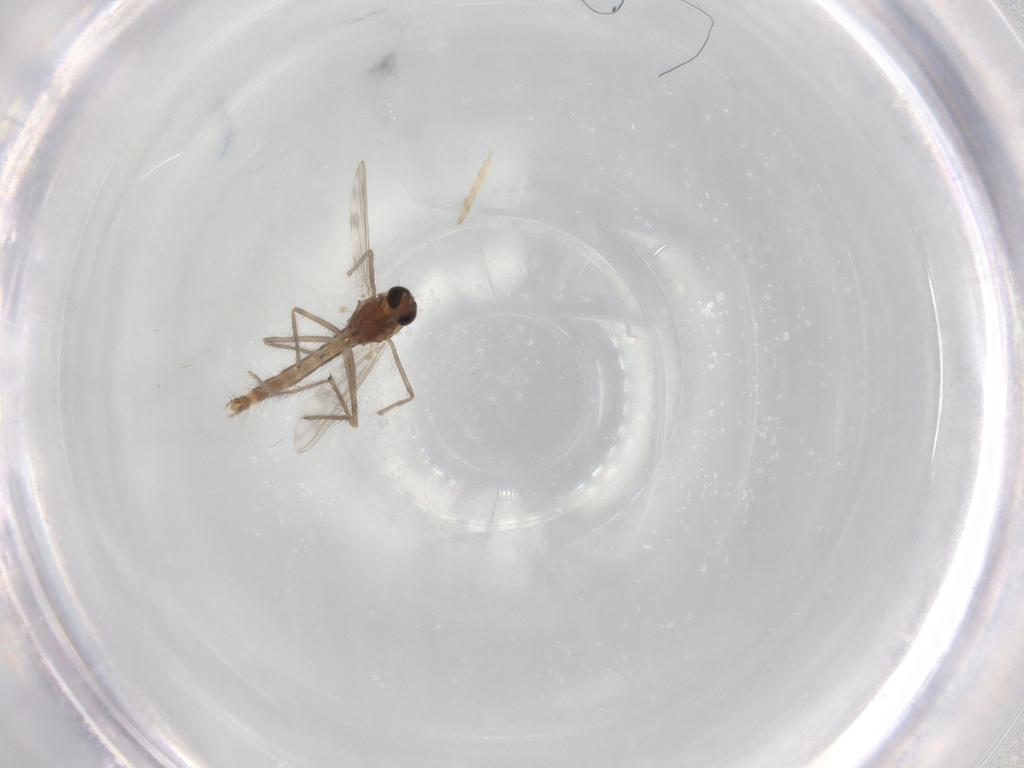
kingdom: Animalia
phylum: Arthropoda
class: Insecta
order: Diptera
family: Chironomidae
